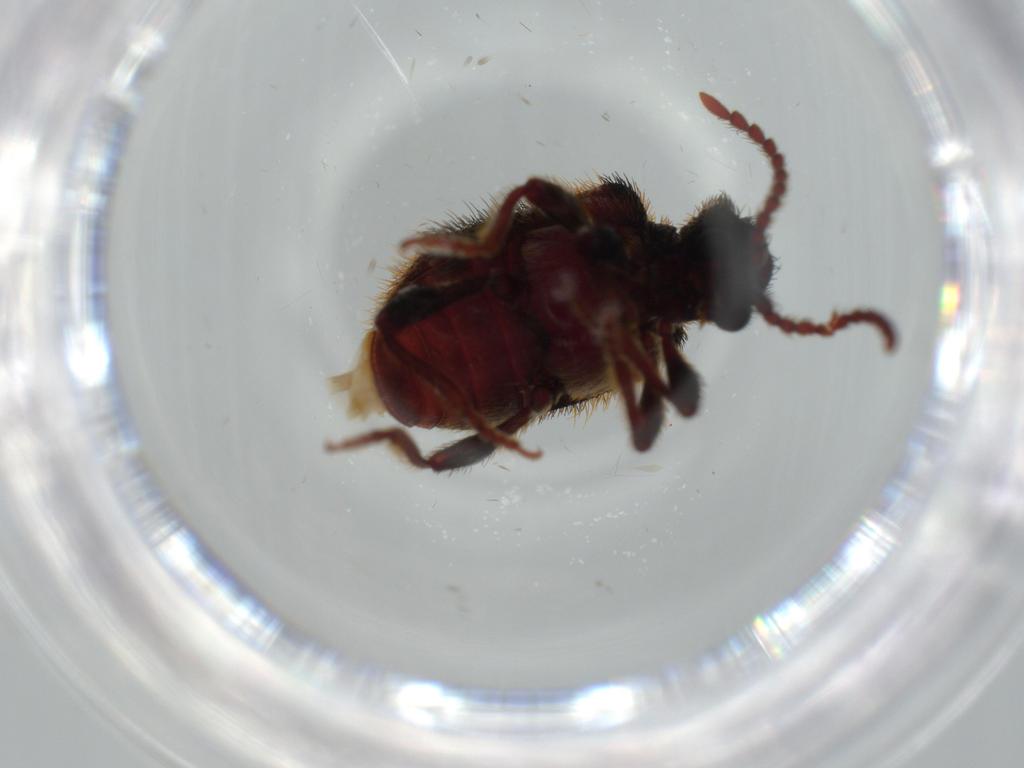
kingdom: Animalia
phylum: Arthropoda
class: Insecta
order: Coleoptera
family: Ptinidae
